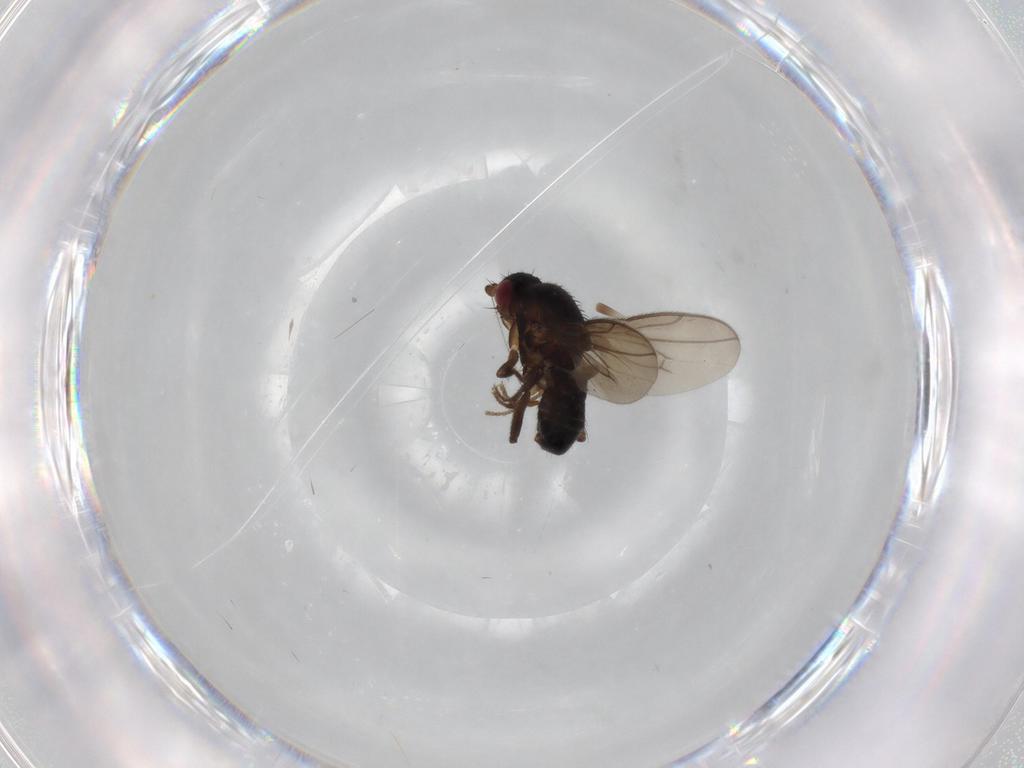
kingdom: Animalia
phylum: Arthropoda
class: Insecta
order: Diptera
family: Sphaeroceridae
